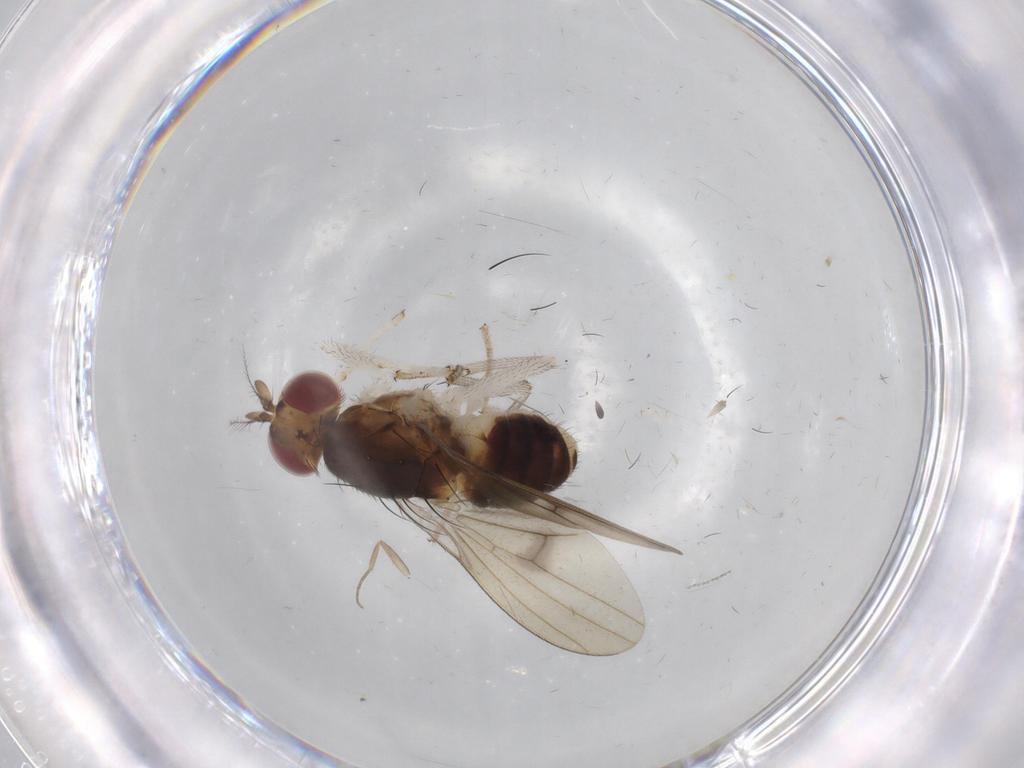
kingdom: Animalia
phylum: Arthropoda
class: Insecta
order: Diptera
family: Cecidomyiidae
